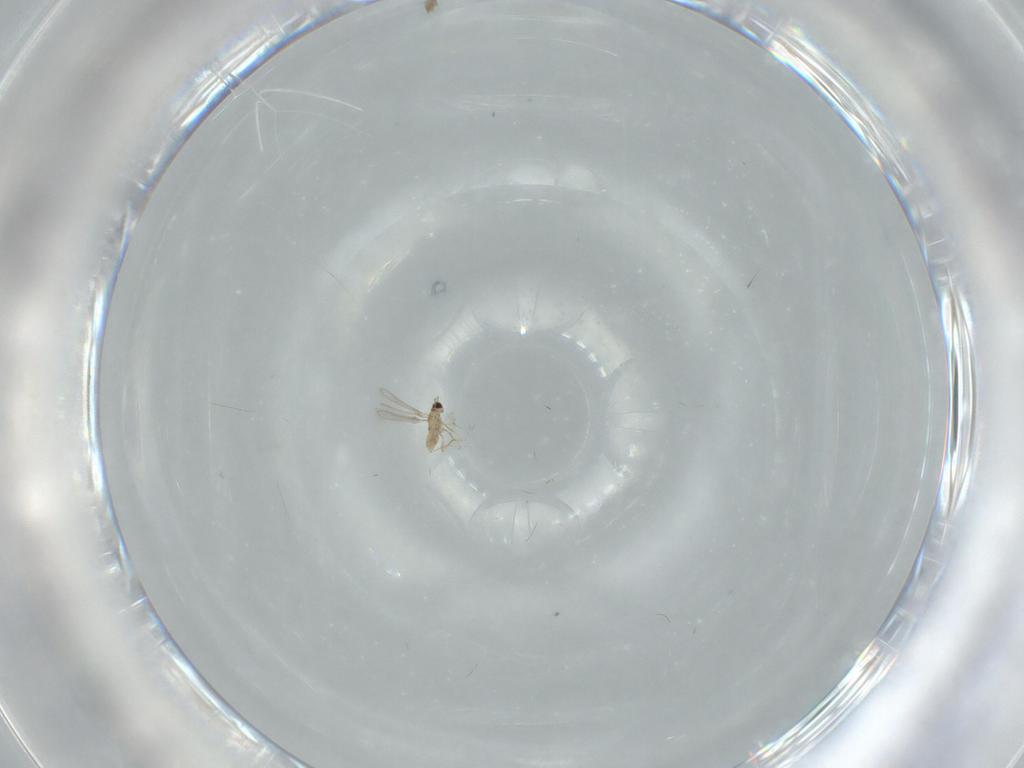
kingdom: Animalia
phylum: Arthropoda
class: Insecta
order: Hymenoptera
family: Mymaridae
